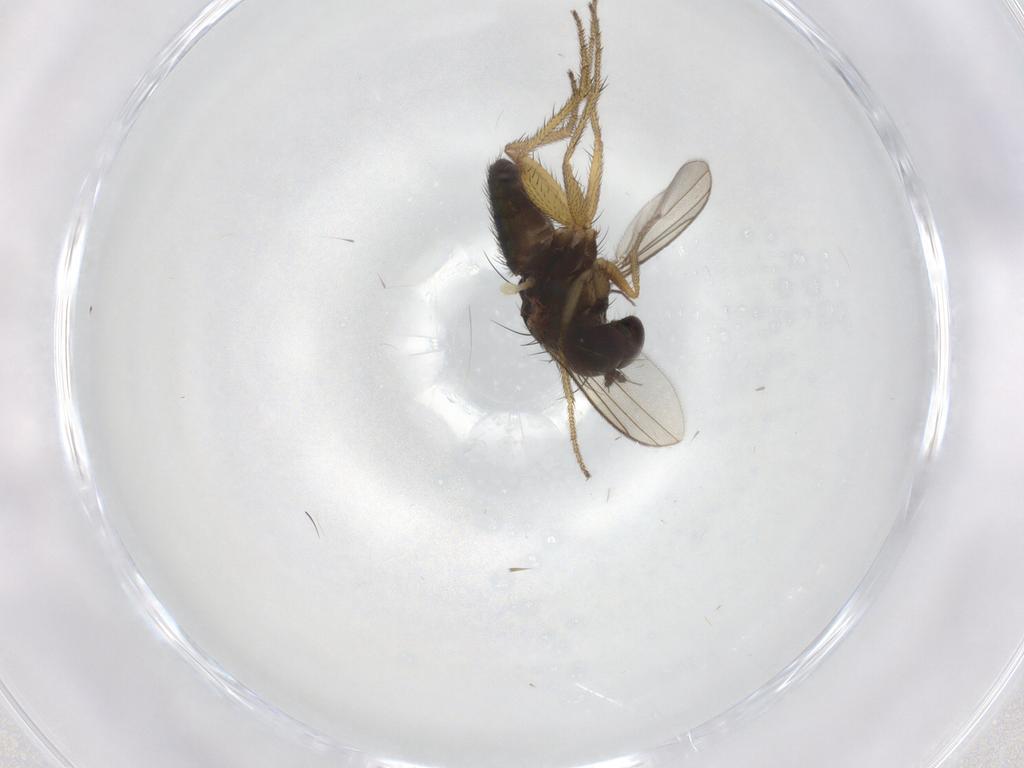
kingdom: Animalia
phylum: Arthropoda
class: Insecta
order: Diptera
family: Dolichopodidae
